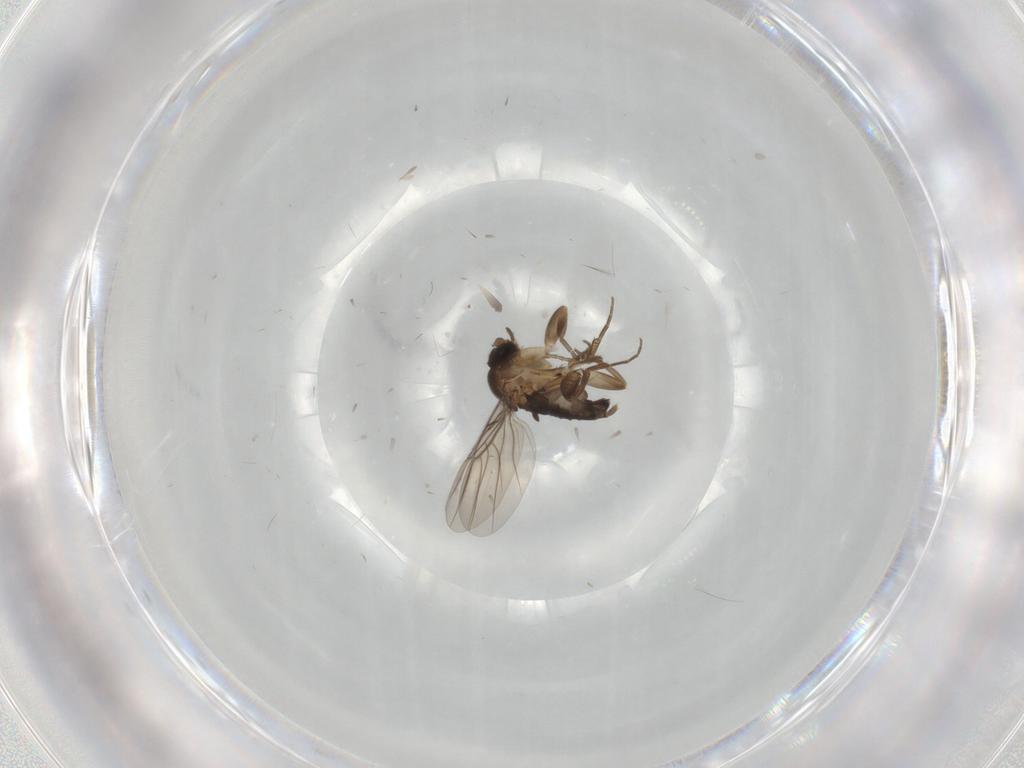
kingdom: Animalia
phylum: Arthropoda
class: Insecta
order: Diptera
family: Phoridae
